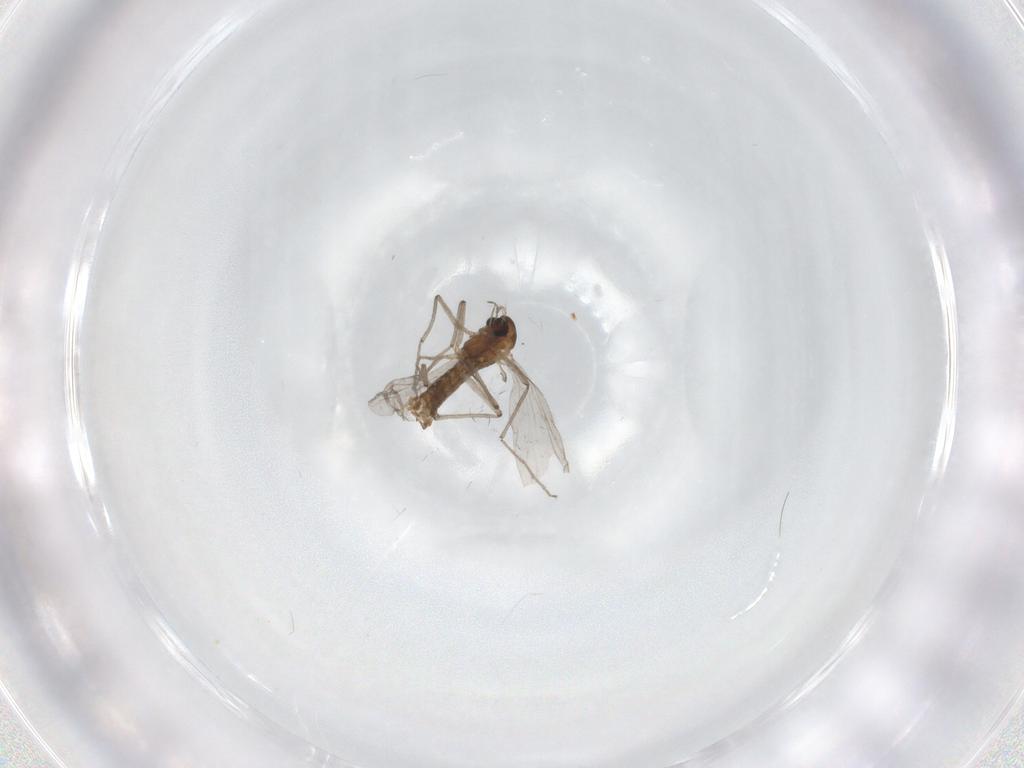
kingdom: Animalia
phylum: Arthropoda
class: Insecta
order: Diptera
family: Chironomidae
